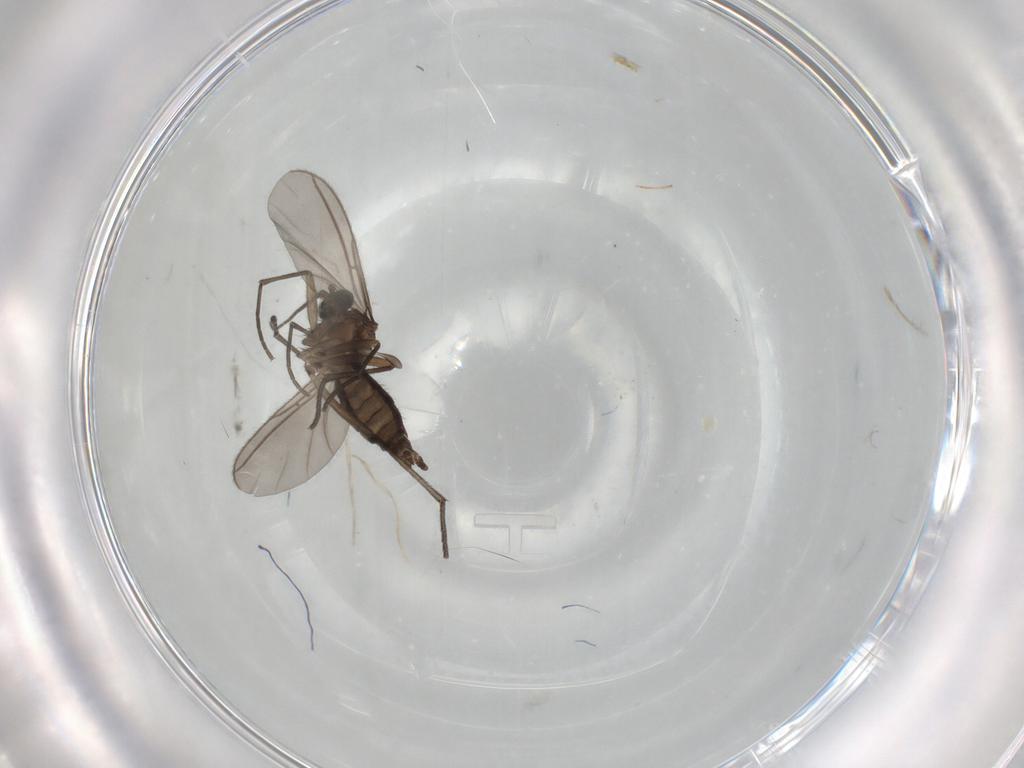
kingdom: Animalia
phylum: Arthropoda
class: Insecta
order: Diptera
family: Sciaridae
